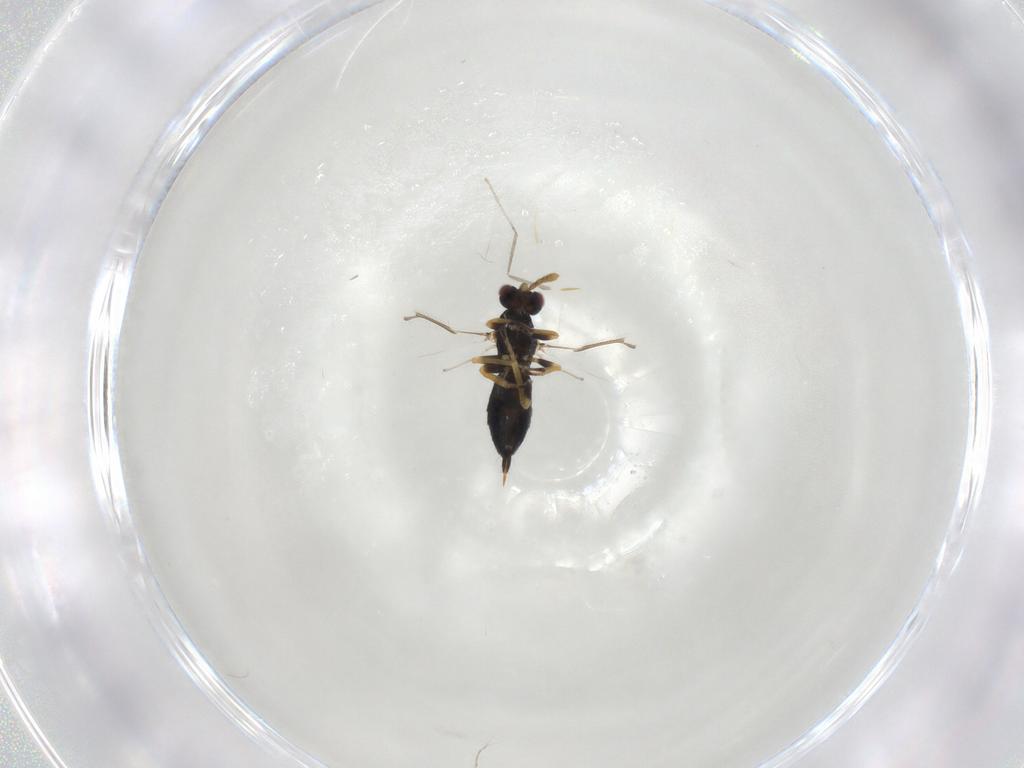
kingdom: Animalia
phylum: Arthropoda
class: Insecta
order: Hymenoptera
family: Eulophidae
